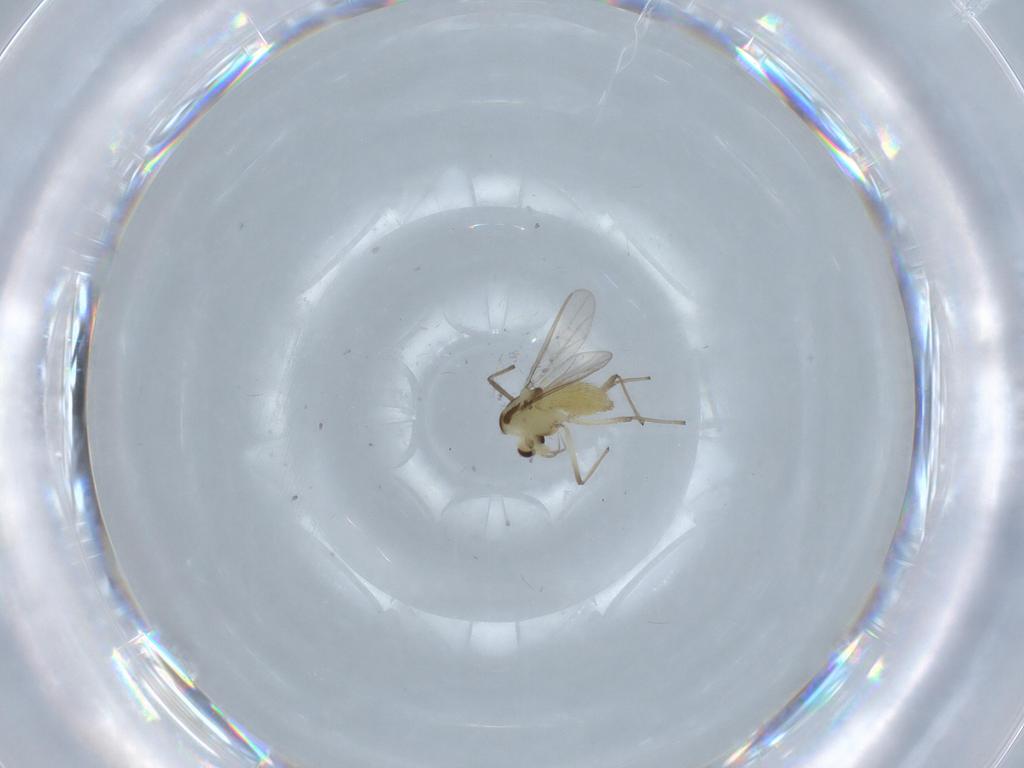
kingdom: Animalia
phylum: Arthropoda
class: Insecta
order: Diptera
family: Chironomidae
